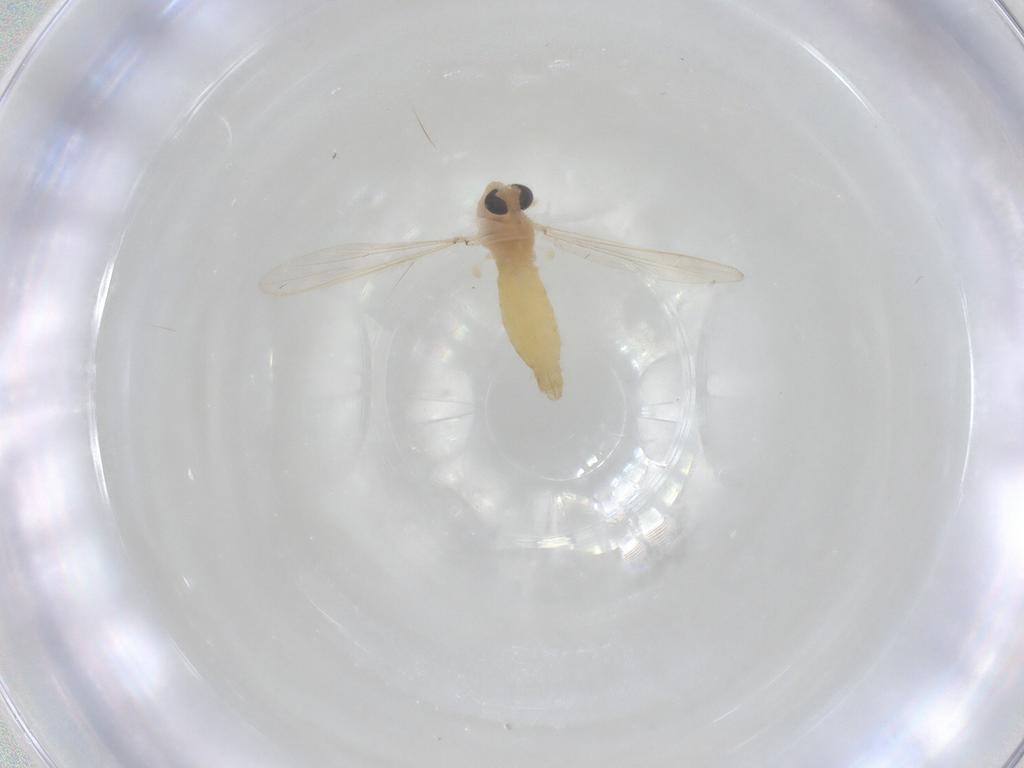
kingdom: Animalia
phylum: Arthropoda
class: Insecta
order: Diptera
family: Chironomidae
